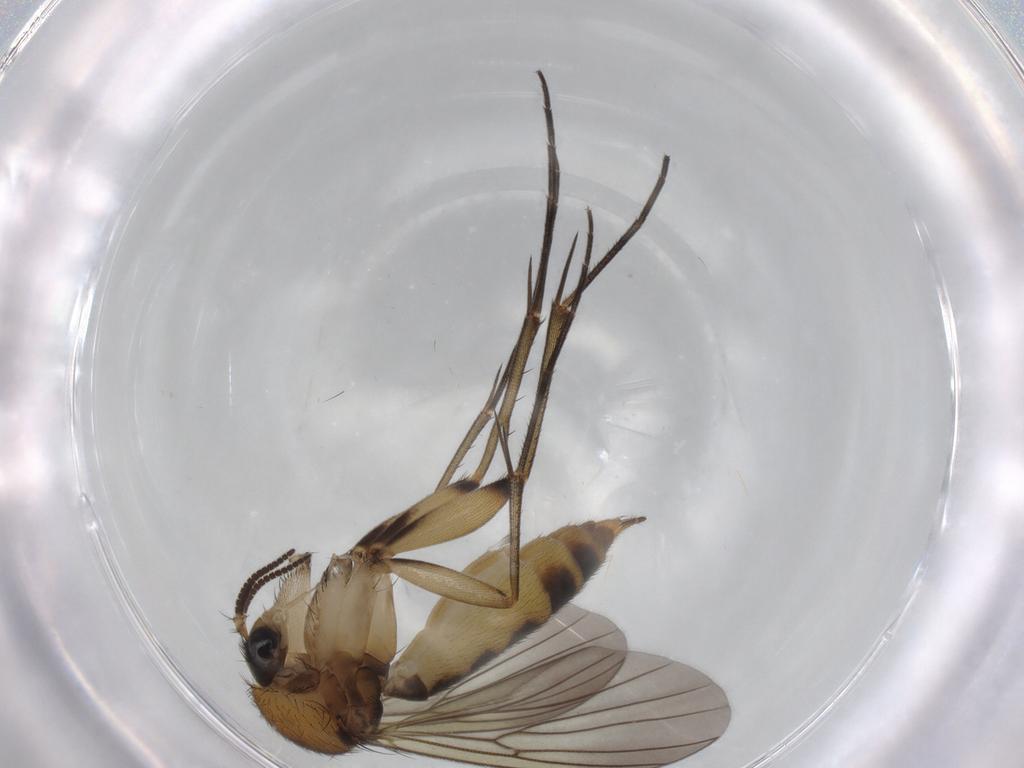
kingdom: Animalia
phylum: Arthropoda
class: Insecta
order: Diptera
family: Mycetophilidae
